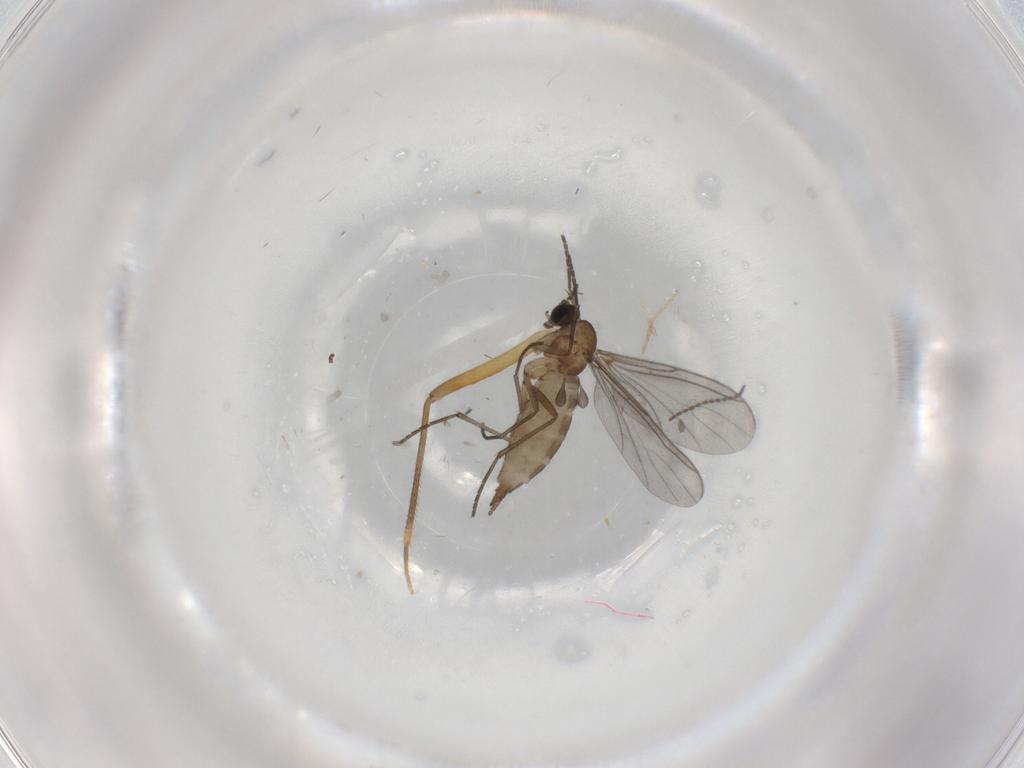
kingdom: Animalia
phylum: Arthropoda
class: Insecta
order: Diptera
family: Sciaridae
